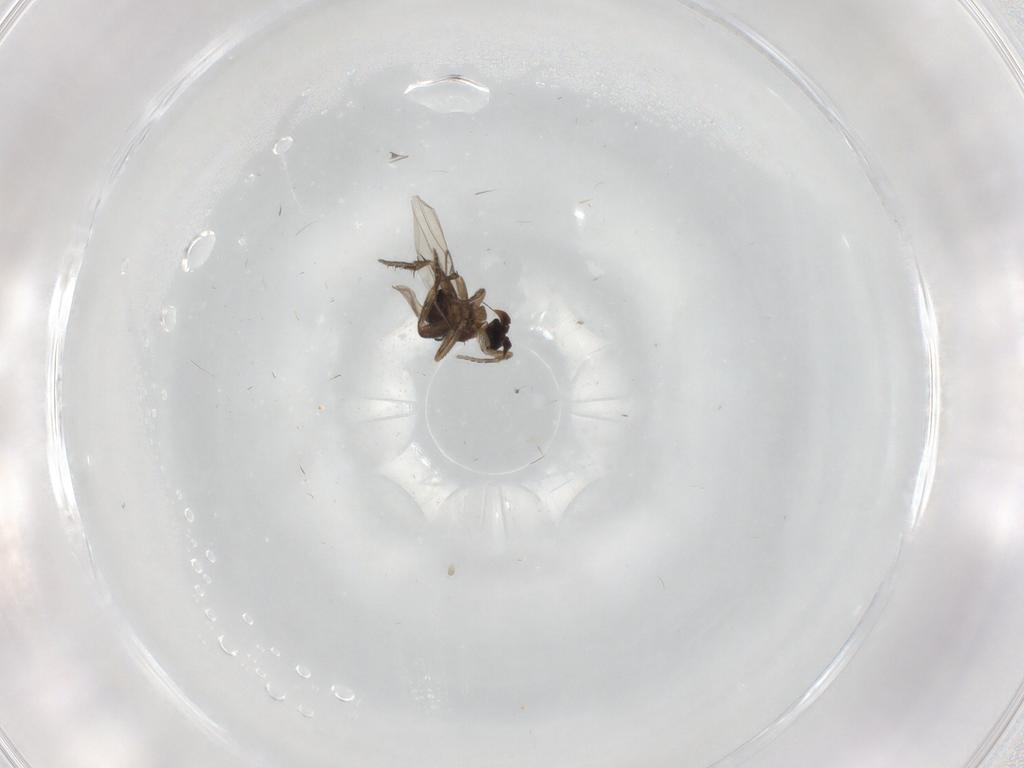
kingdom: Animalia
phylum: Arthropoda
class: Insecta
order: Diptera
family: Phoridae
